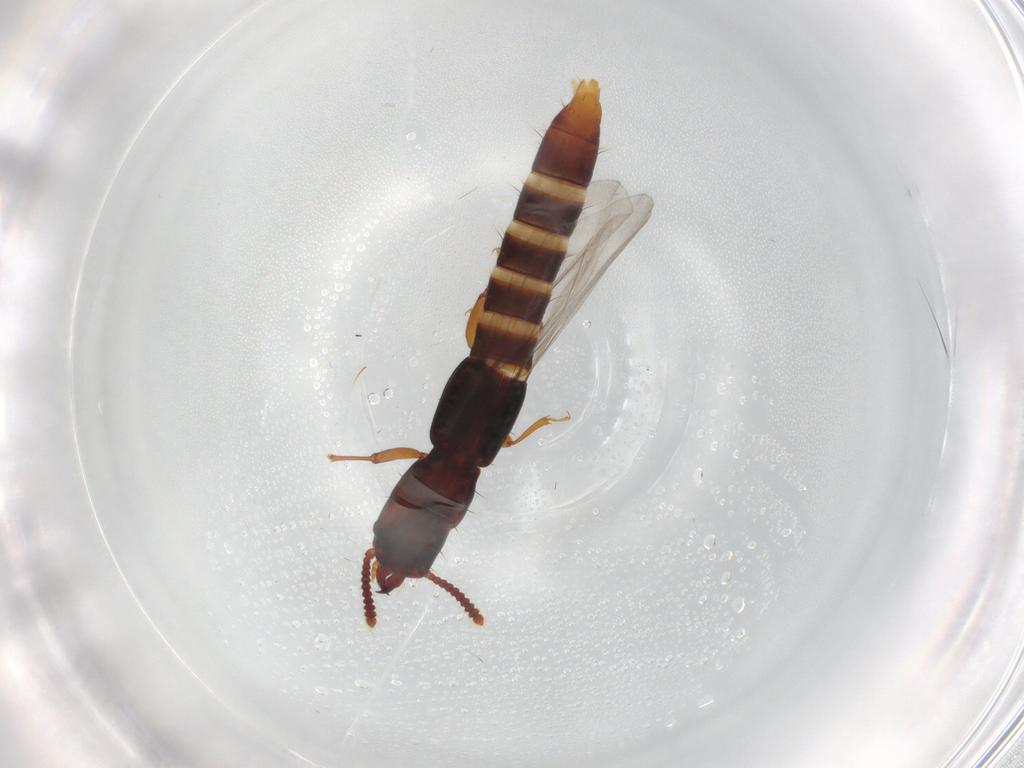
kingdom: Animalia
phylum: Arthropoda
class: Insecta
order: Coleoptera
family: Staphylinidae
